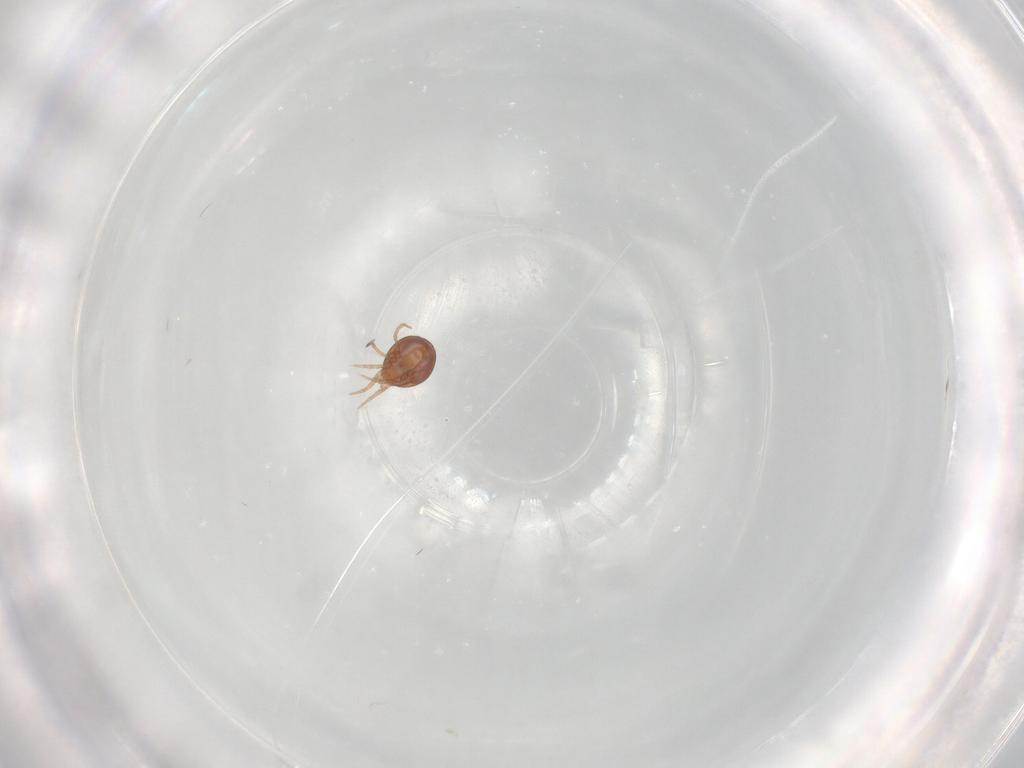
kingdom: Animalia
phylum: Arthropoda
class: Arachnida
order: Mesostigmata
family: Phytoseiidae
